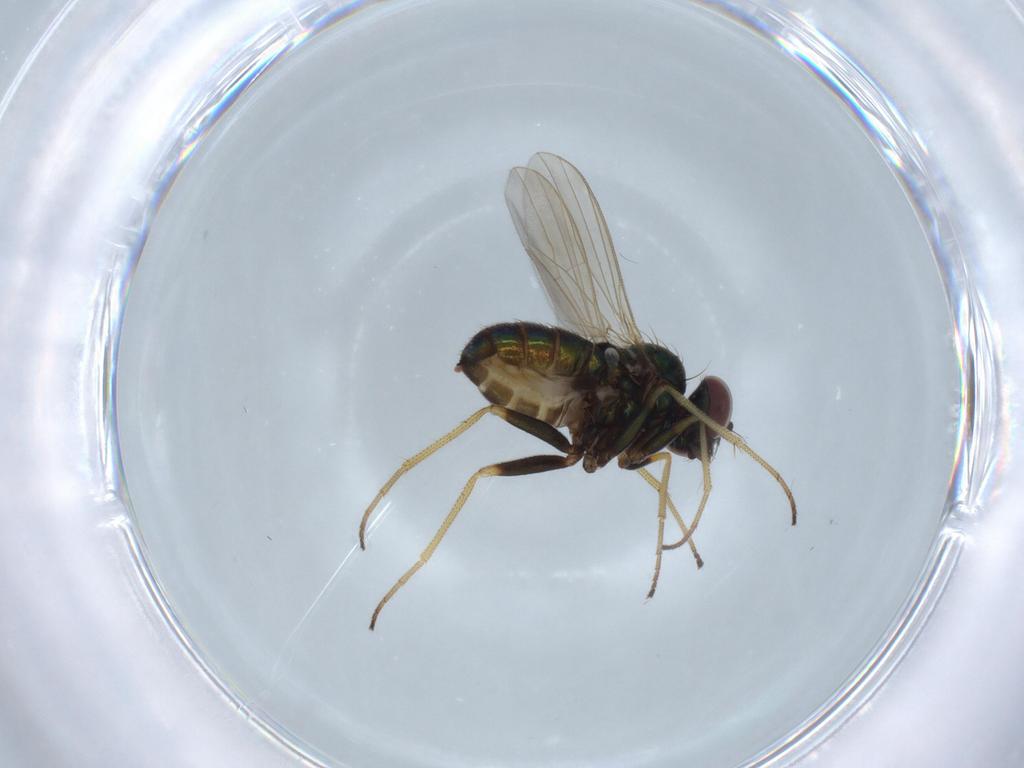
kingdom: Animalia
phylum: Arthropoda
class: Insecta
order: Diptera
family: Dolichopodidae
